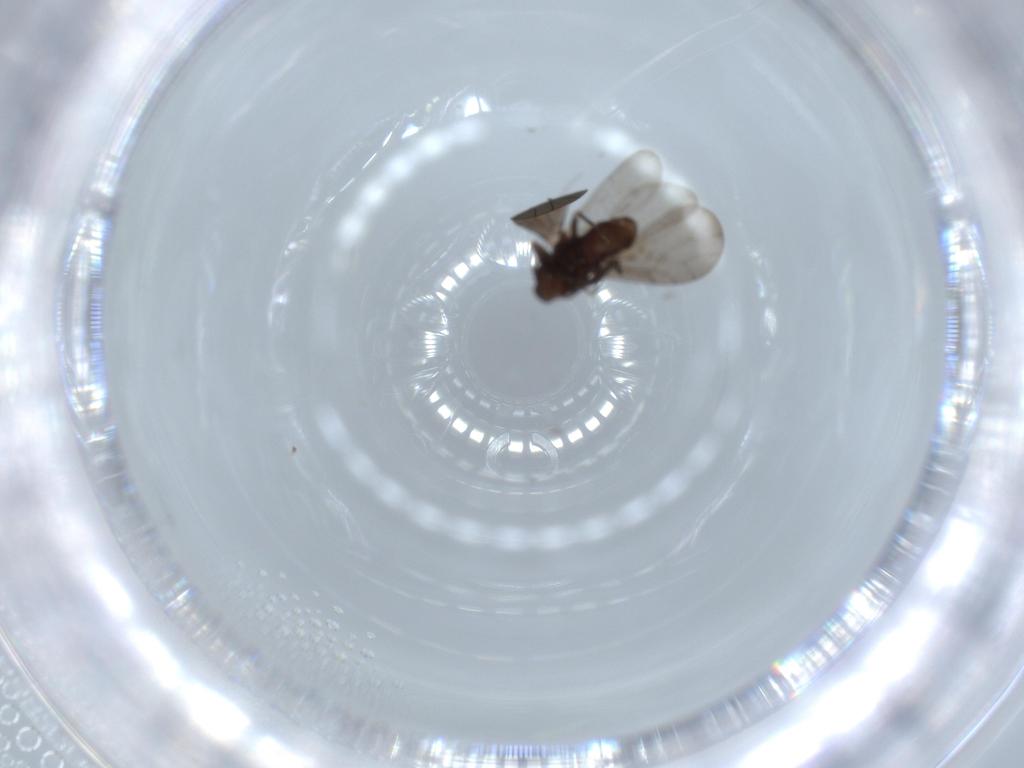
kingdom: Animalia
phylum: Arthropoda
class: Insecta
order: Psocodea
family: Lepidopsocidae
